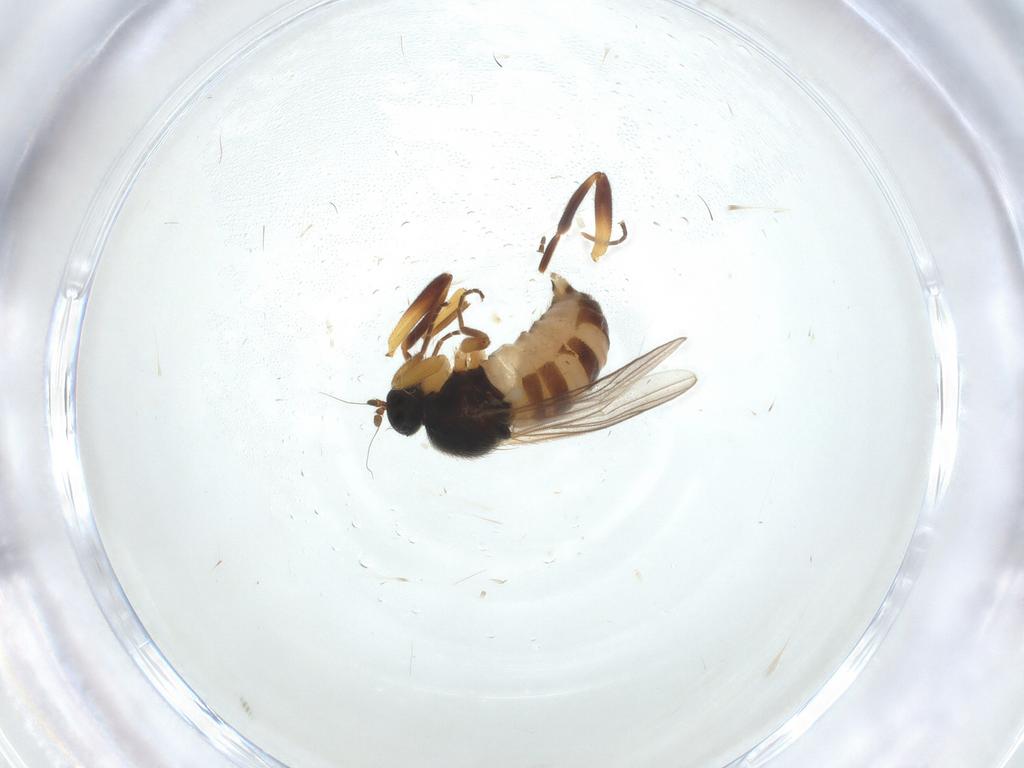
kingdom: Animalia
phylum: Arthropoda
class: Insecta
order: Diptera
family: Hybotidae
